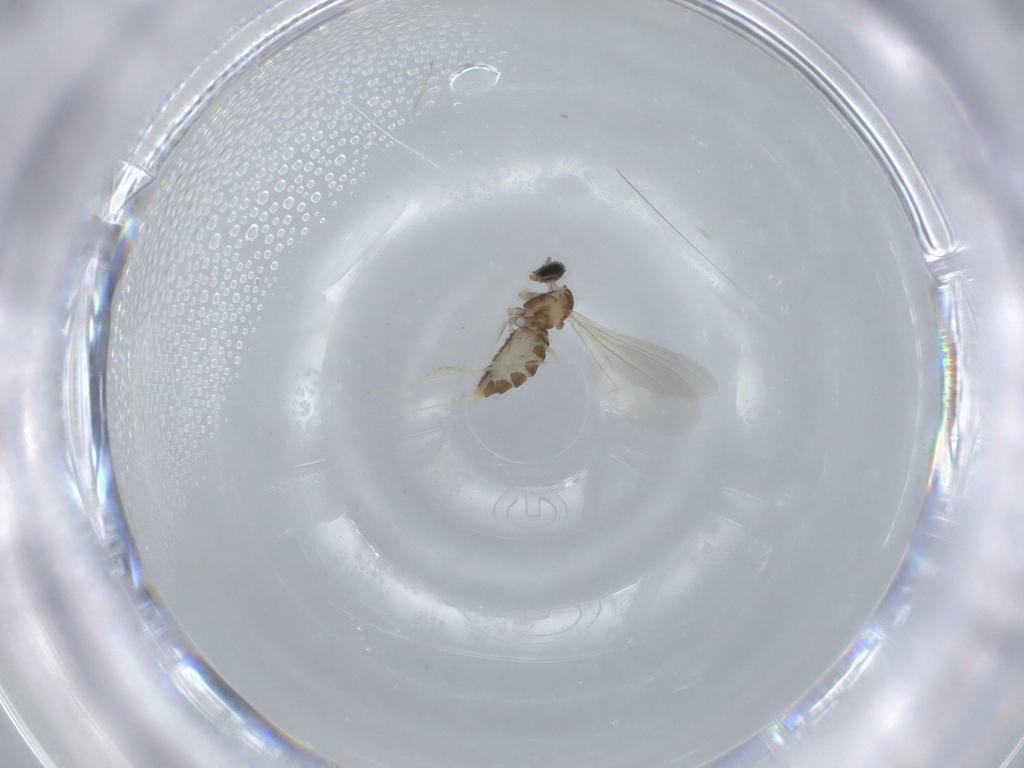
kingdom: Animalia
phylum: Arthropoda
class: Insecta
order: Diptera
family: Cecidomyiidae
